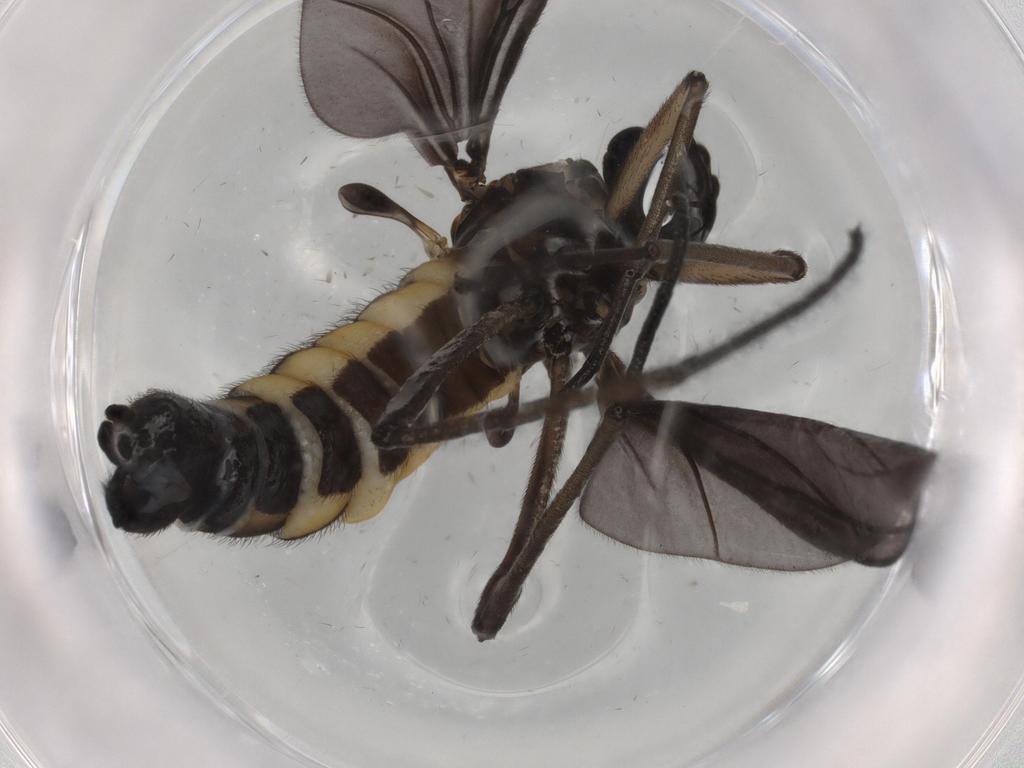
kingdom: Animalia
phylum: Arthropoda
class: Insecta
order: Diptera
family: Sciaridae
